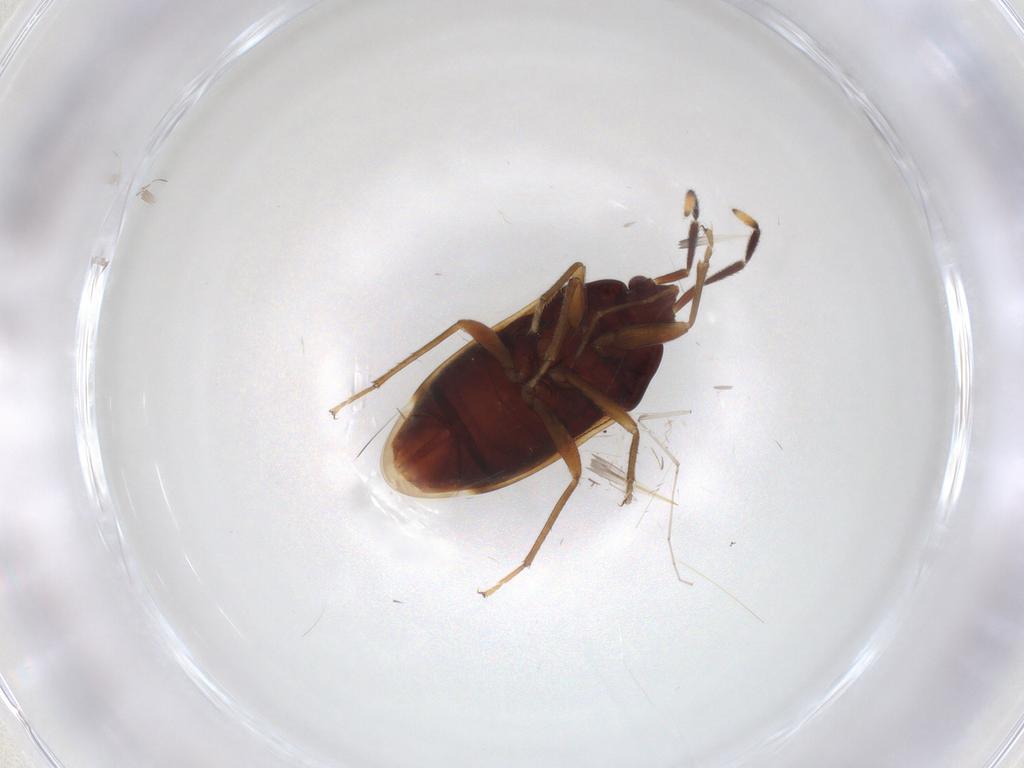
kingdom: Animalia
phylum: Arthropoda
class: Insecta
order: Hemiptera
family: Rhyparochromidae
